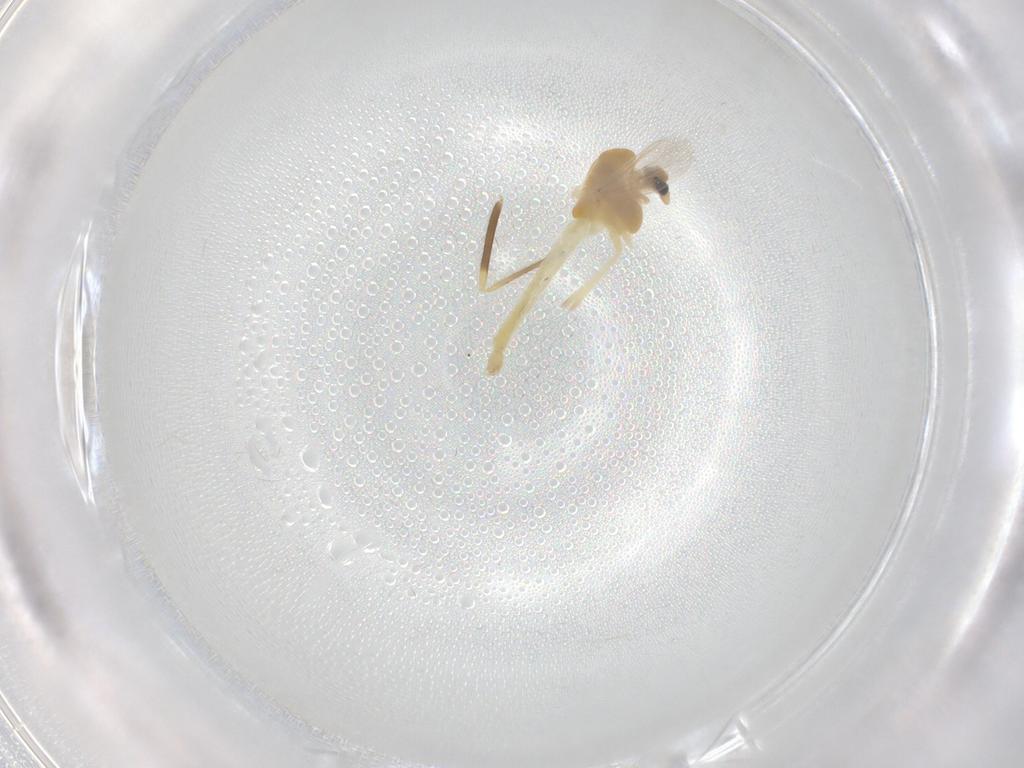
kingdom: Animalia
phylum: Arthropoda
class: Insecta
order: Diptera
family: Chironomidae
